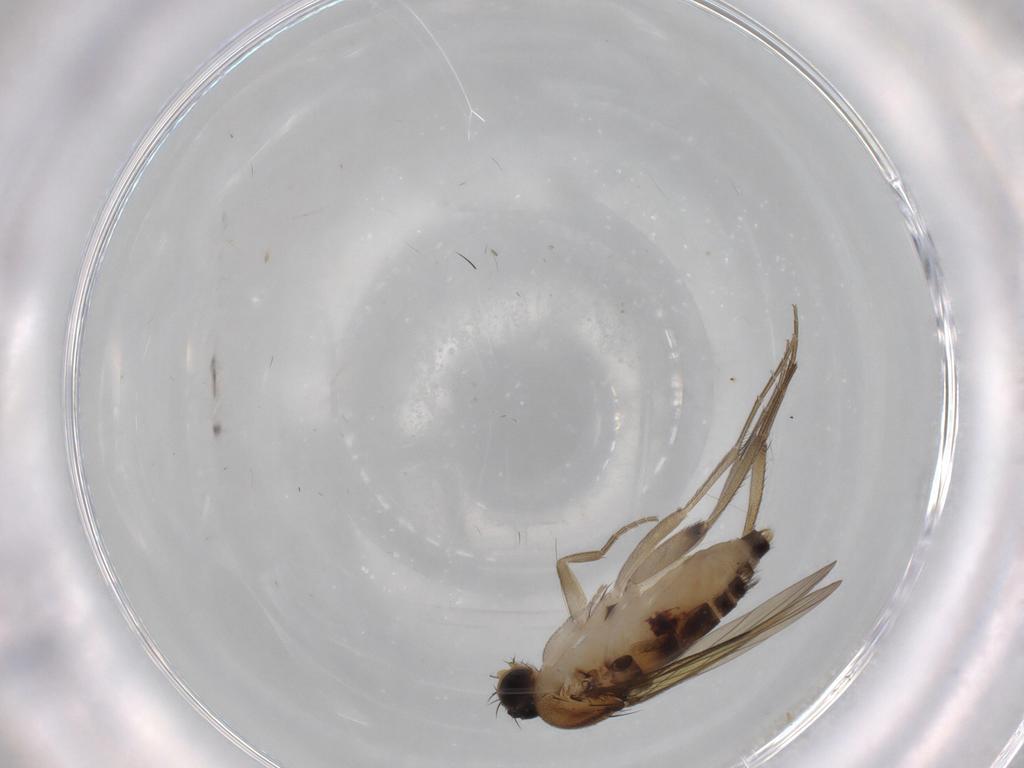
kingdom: Animalia
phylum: Arthropoda
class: Insecta
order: Diptera
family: Phoridae
